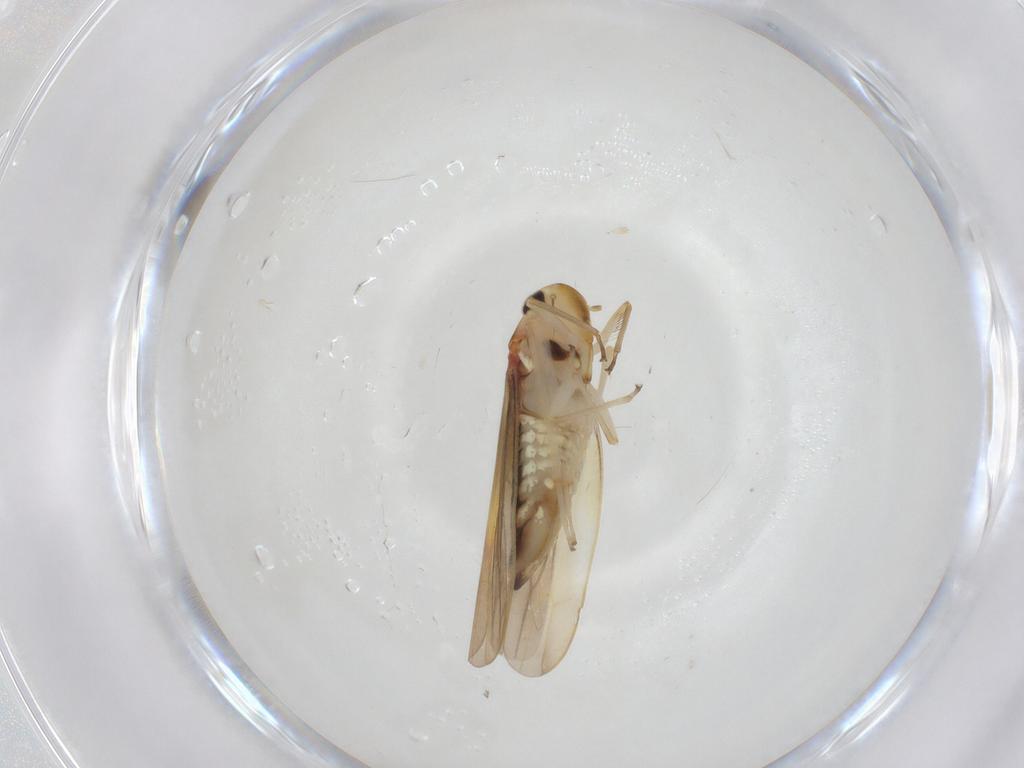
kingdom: Animalia
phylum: Arthropoda
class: Insecta
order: Hemiptera
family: Cicadellidae
